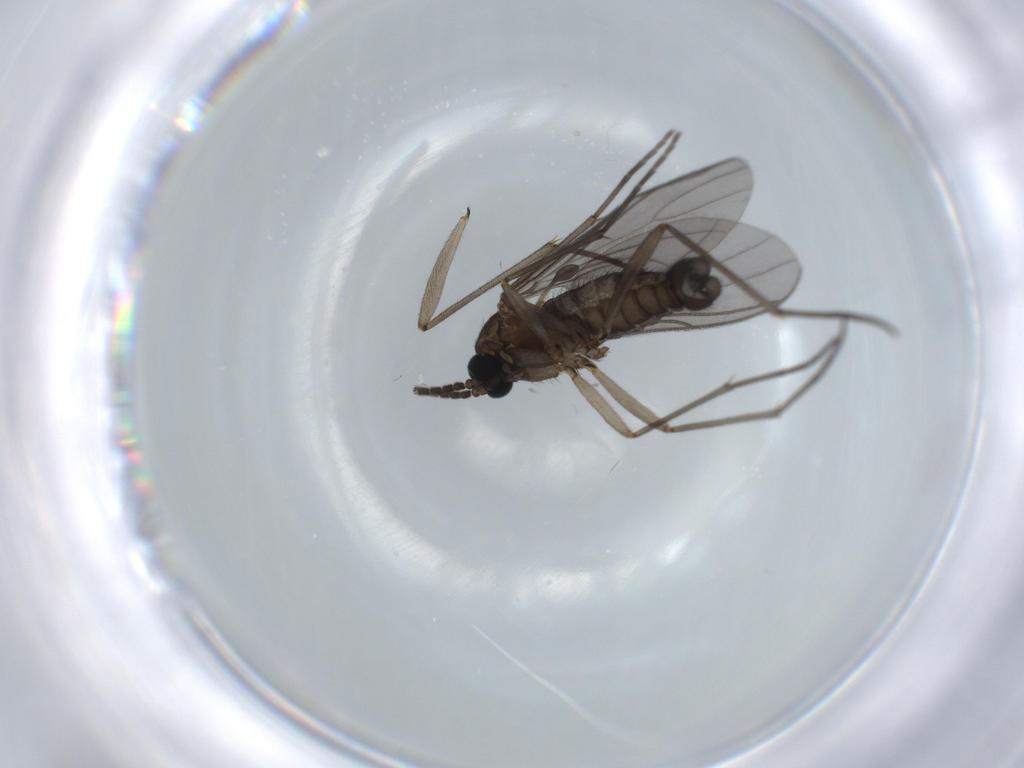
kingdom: Animalia
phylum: Arthropoda
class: Insecta
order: Diptera
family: Sciaridae
